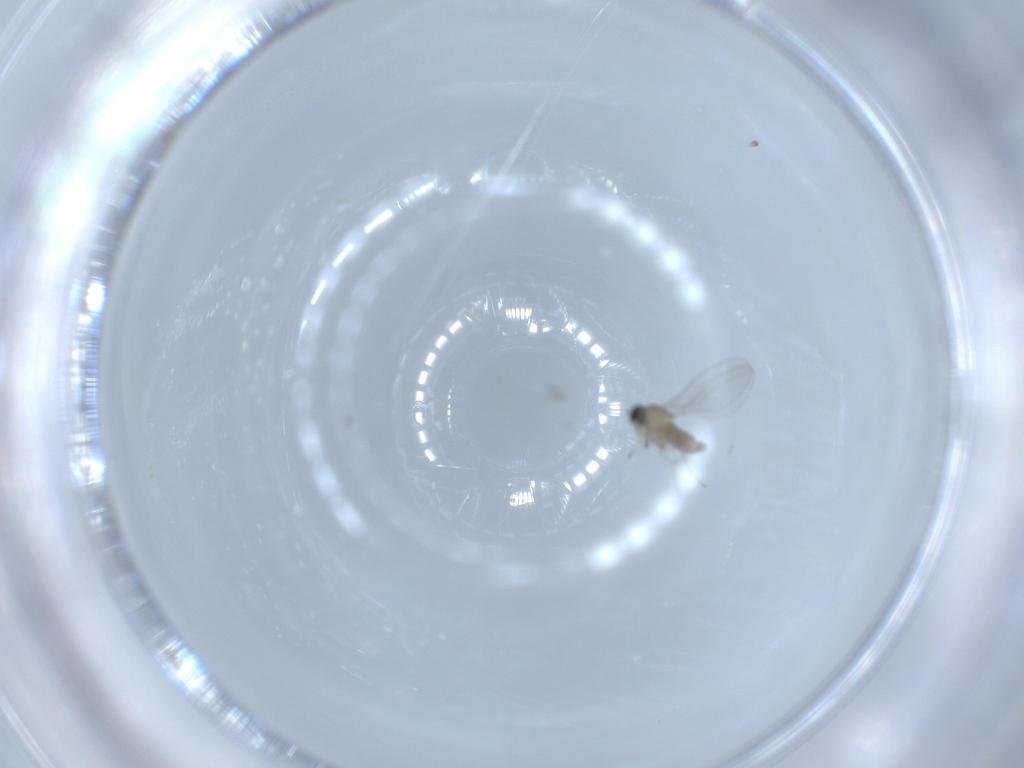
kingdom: Animalia
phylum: Arthropoda
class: Insecta
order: Diptera
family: Cecidomyiidae
